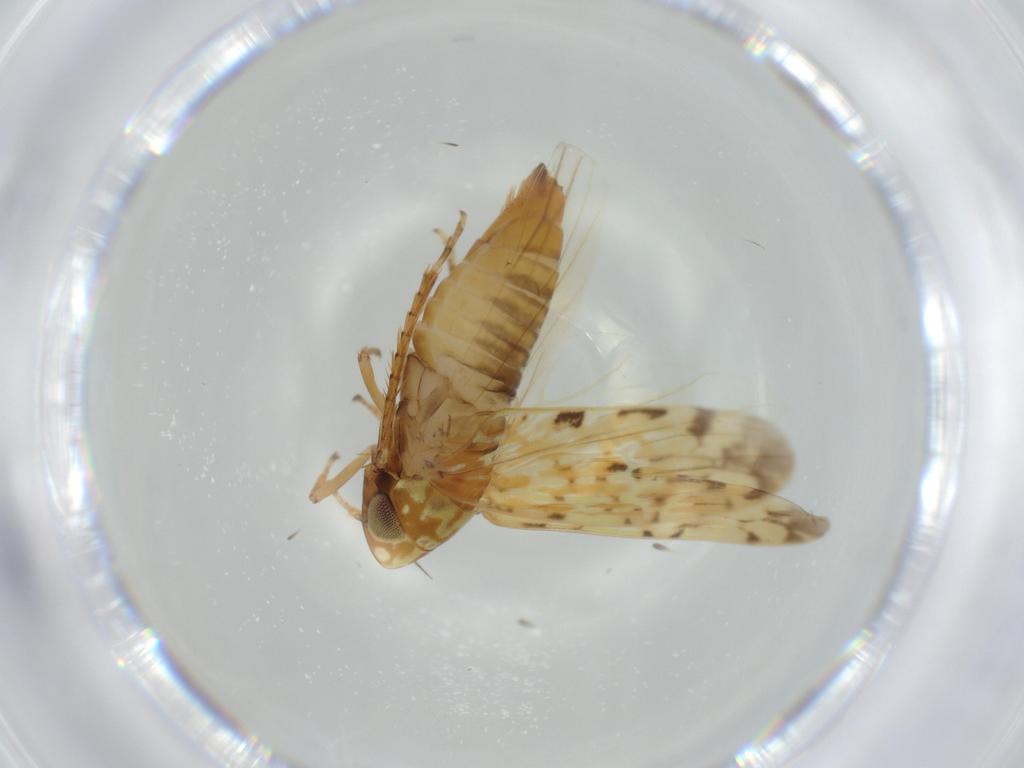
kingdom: Animalia
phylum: Arthropoda
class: Insecta
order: Hemiptera
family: Cicadellidae
